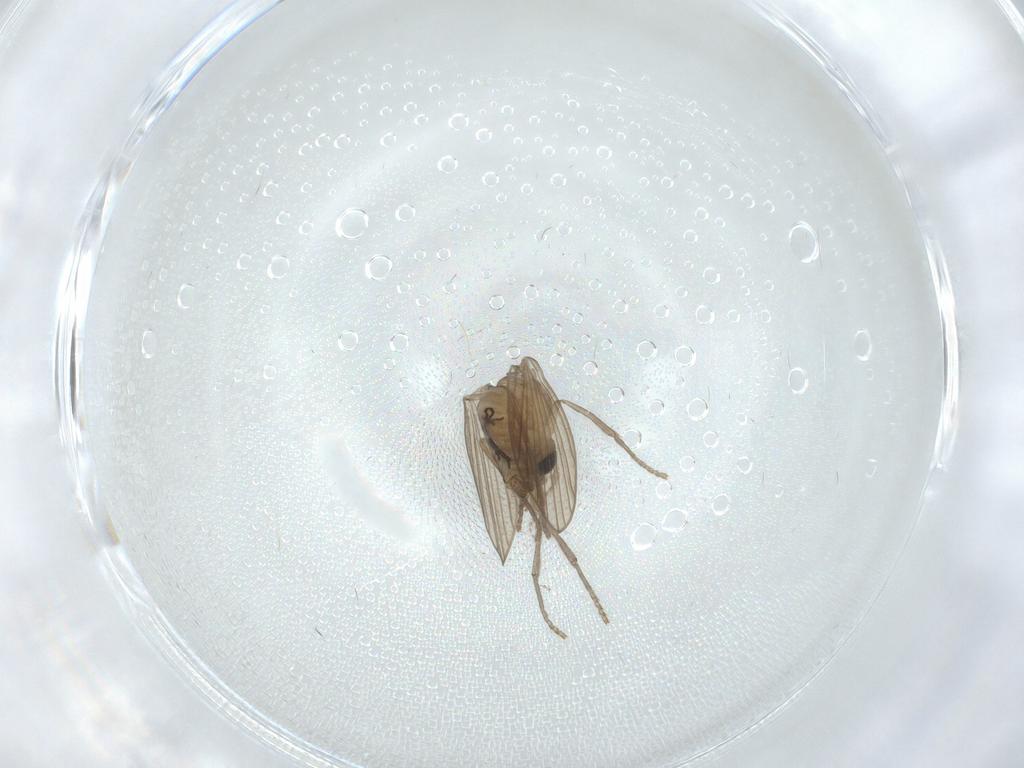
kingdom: Animalia
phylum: Arthropoda
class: Insecta
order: Diptera
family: Psychodidae
